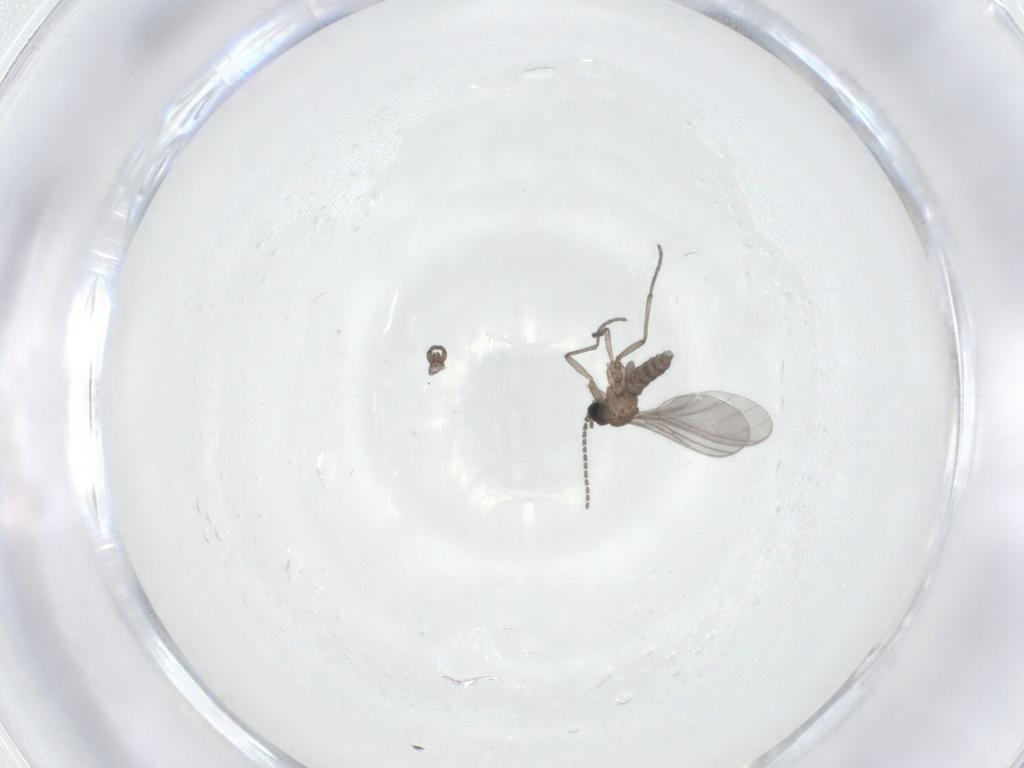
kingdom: Animalia
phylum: Arthropoda
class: Insecta
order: Diptera
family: Sciaridae
